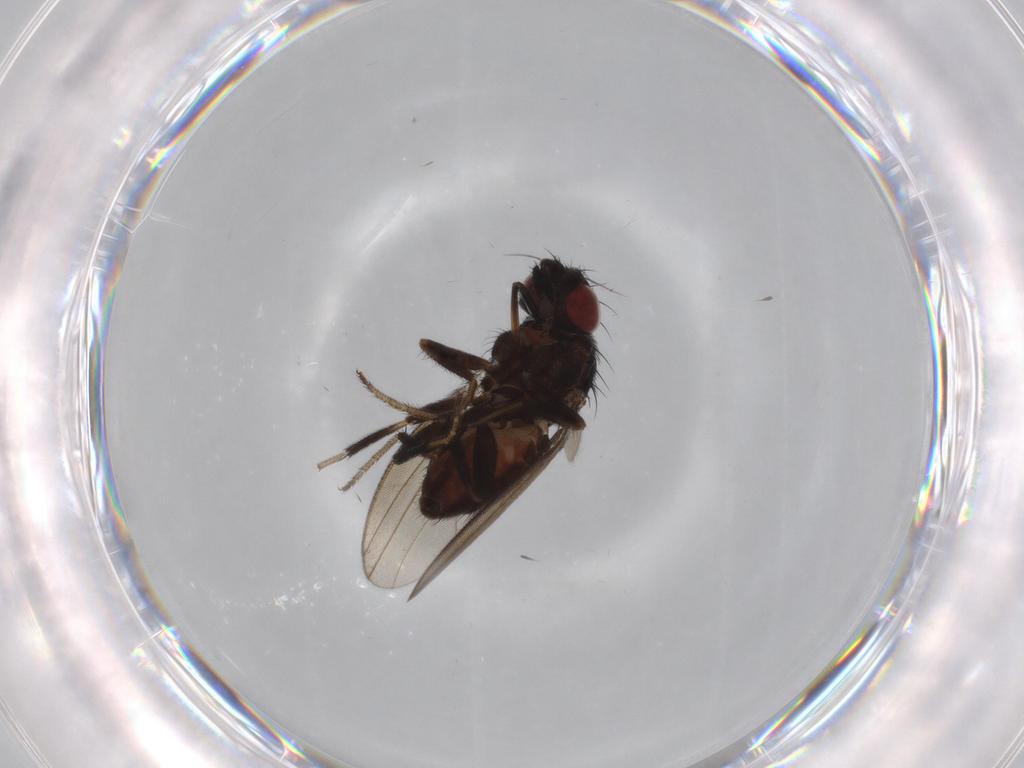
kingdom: Animalia
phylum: Arthropoda
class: Insecta
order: Diptera
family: Milichiidae
